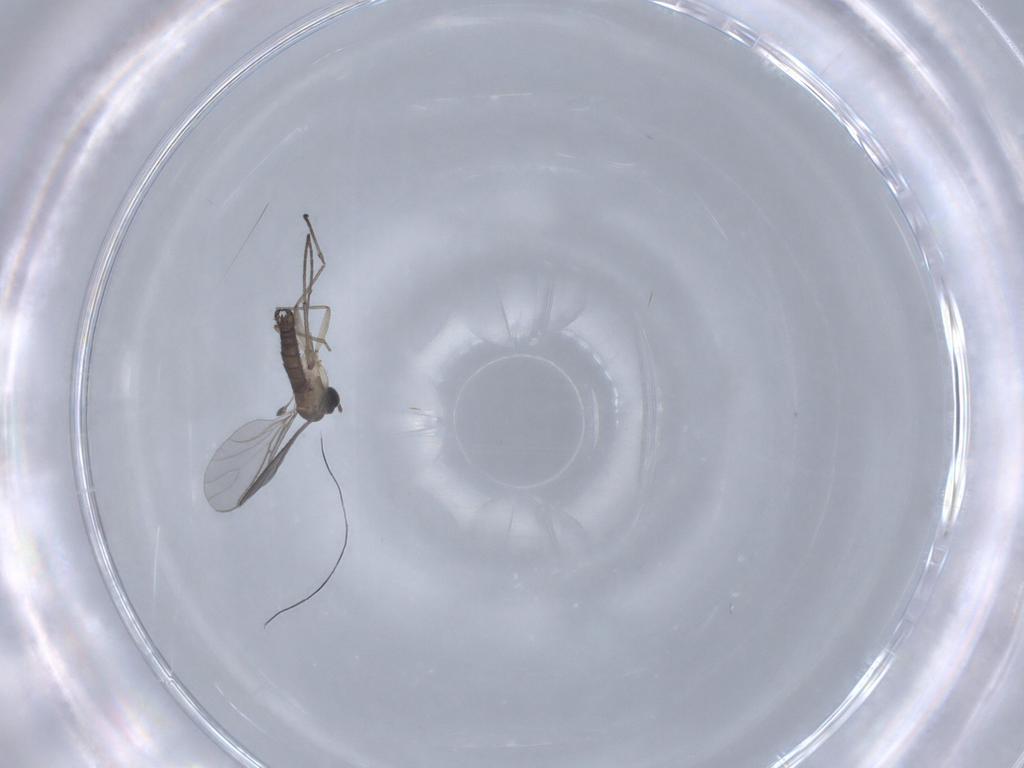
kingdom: Animalia
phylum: Arthropoda
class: Insecta
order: Diptera
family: Sciaridae
